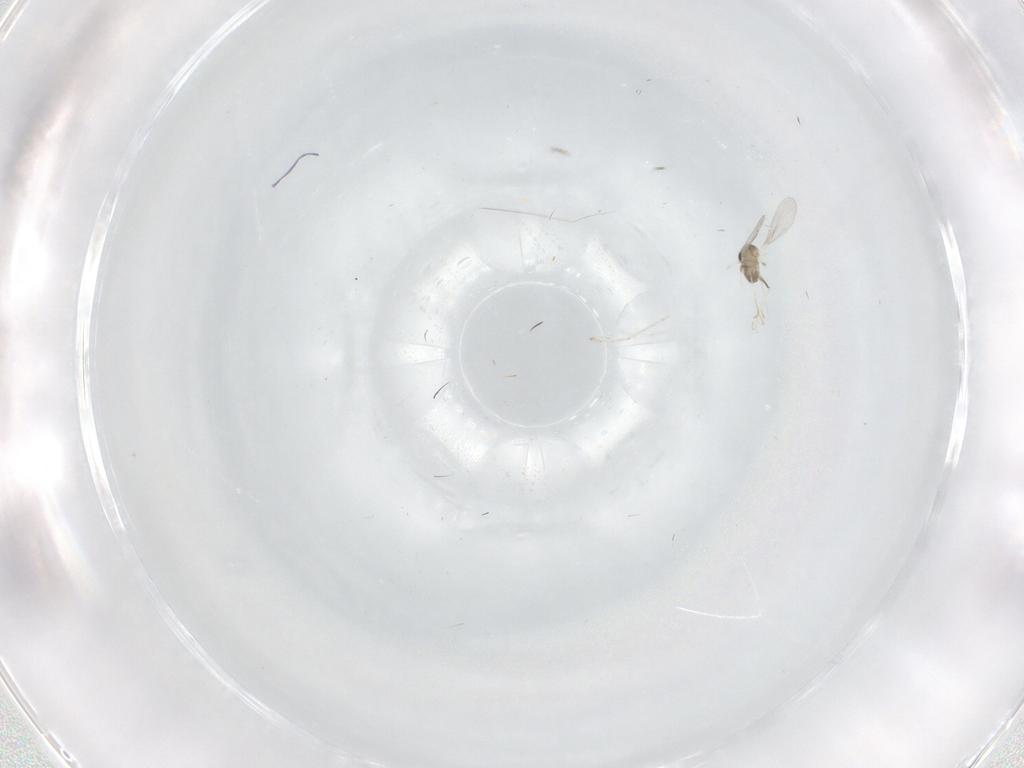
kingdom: Animalia
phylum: Arthropoda
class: Insecta
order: Diptera
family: Cecidomyiidae
